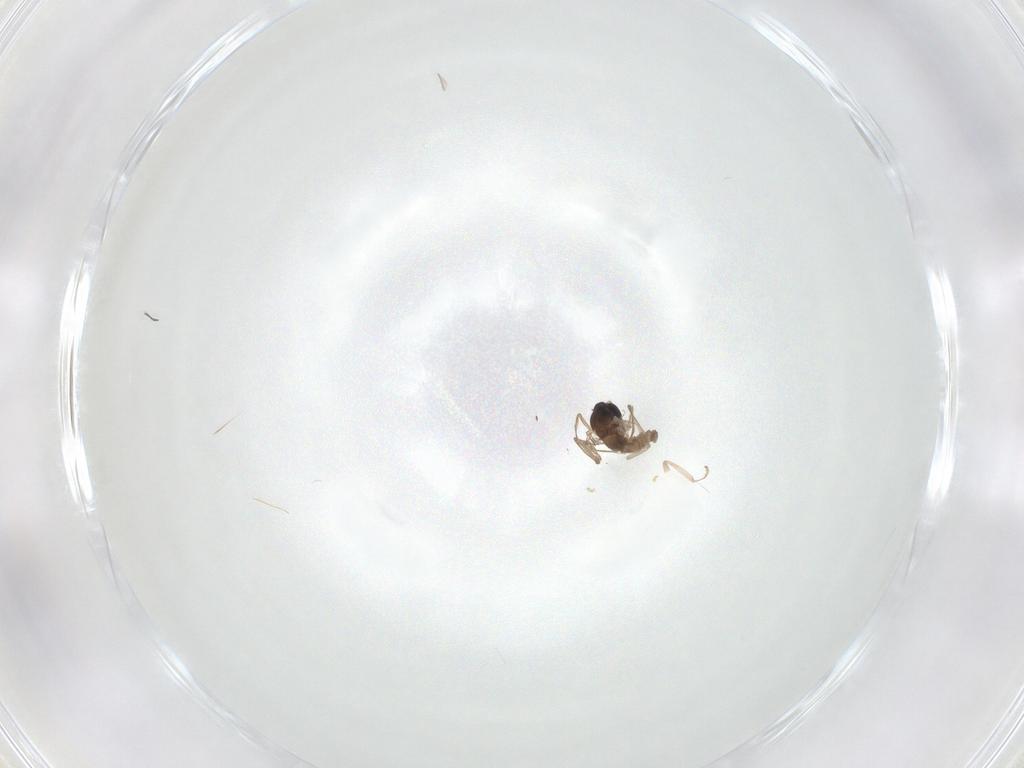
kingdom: Animalia
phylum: Arthropoda
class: Insecta
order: Diptera
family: Cecidomyiidae
